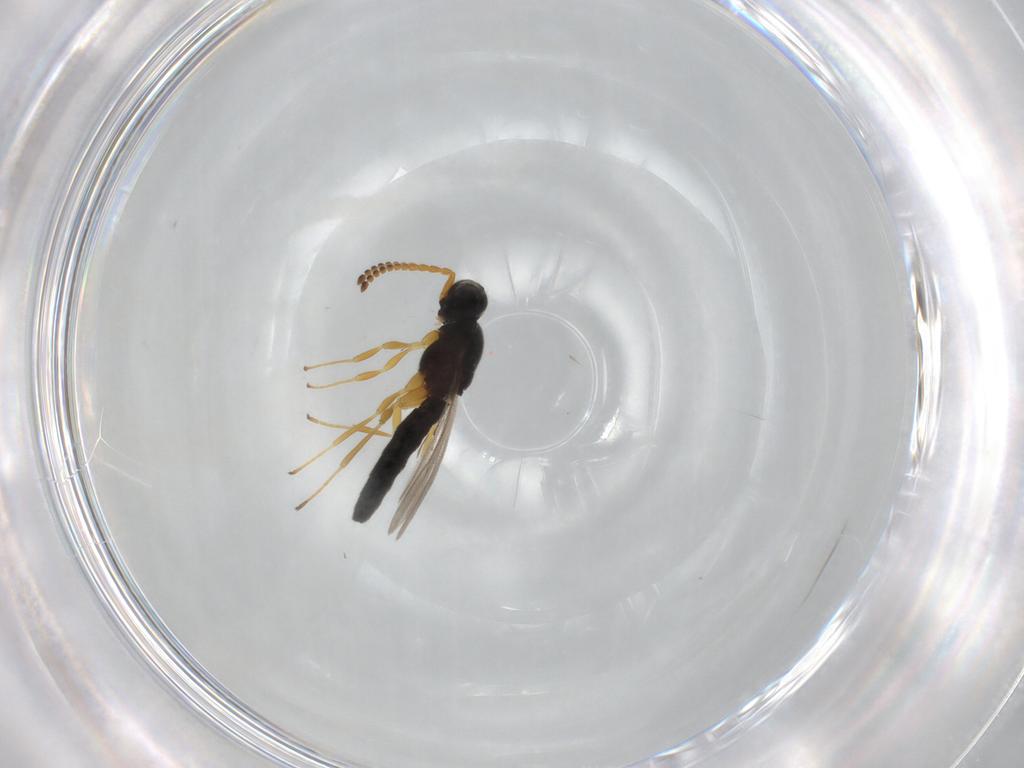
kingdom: Animalia
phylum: Arthropoda
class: Insecta
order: Hymenoptera
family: Scelionidae
